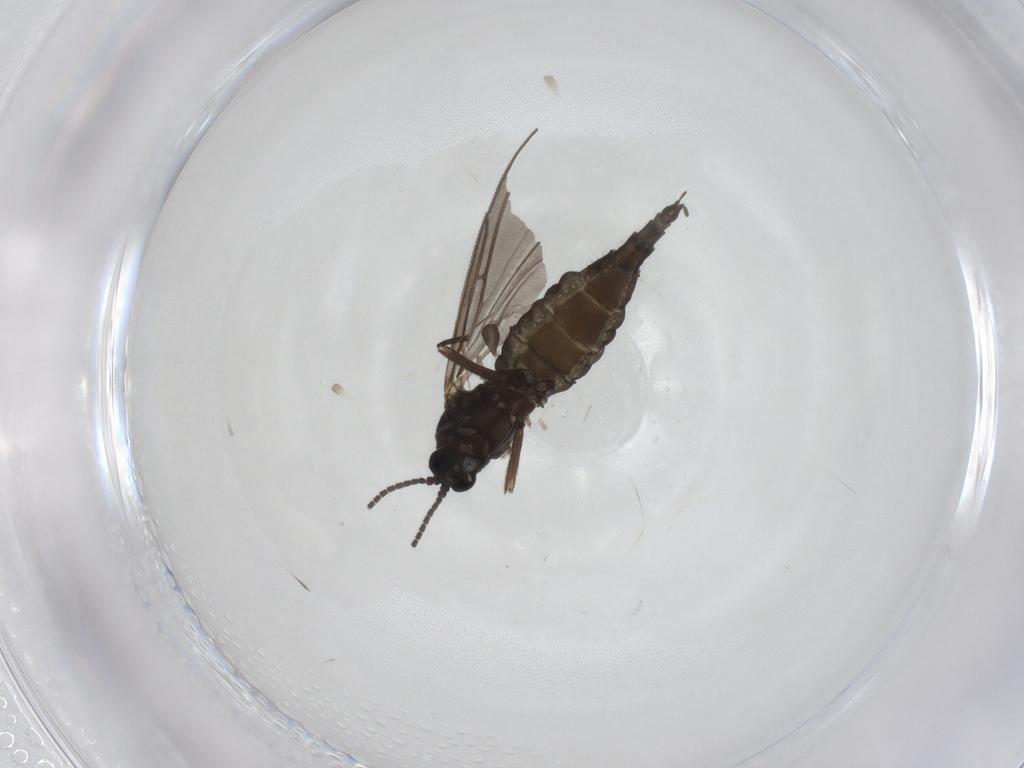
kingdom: Animalia
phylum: Arthropoda
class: Insecta
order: Diptera
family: Sciaridae
